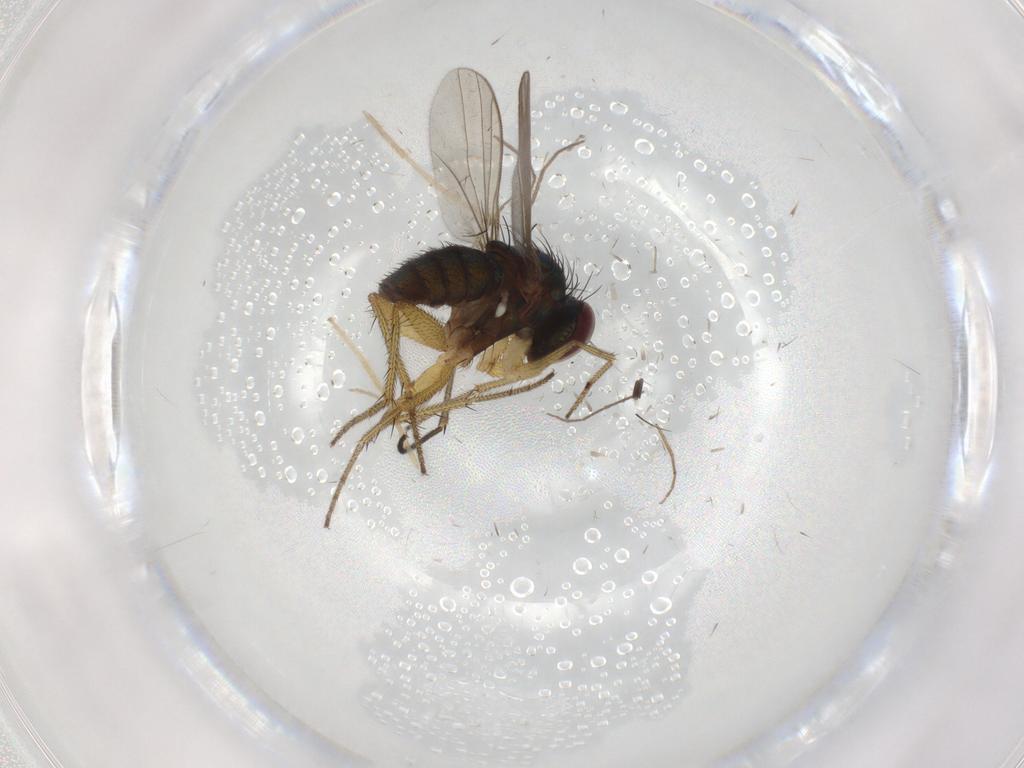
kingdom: Animalia
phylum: Arthropoda
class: Insecta
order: Diptera
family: Sciaridae
